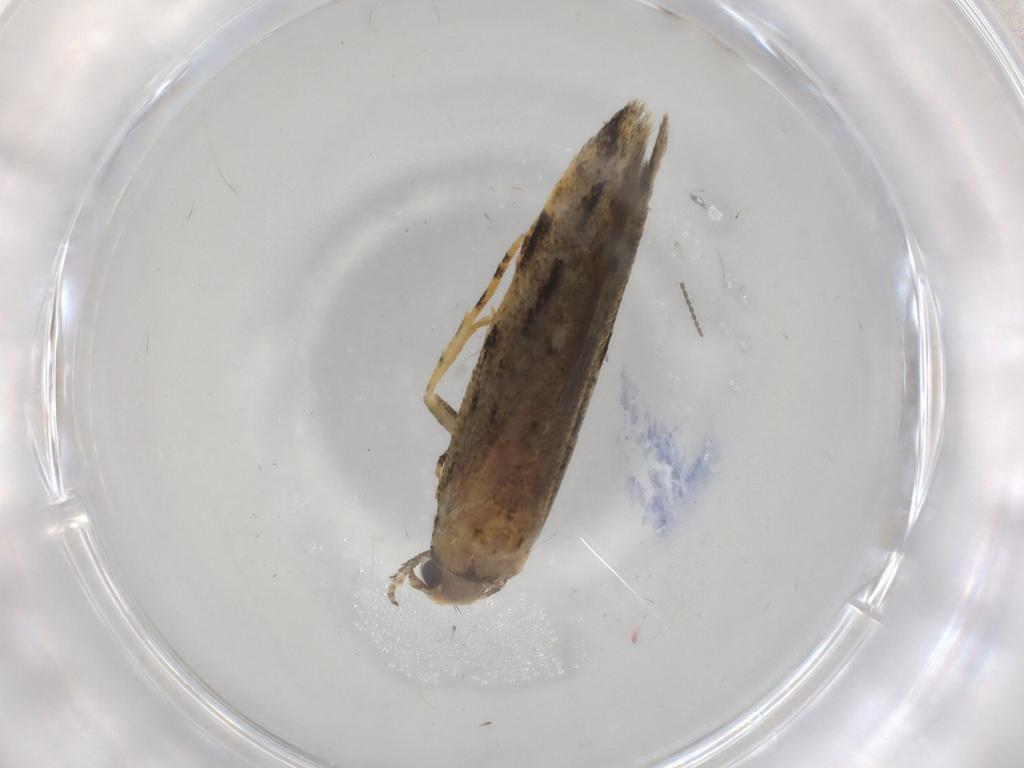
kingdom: Animalia
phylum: Arthropoda
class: Insecta
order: Lepidoptera
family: Gelechiidae
